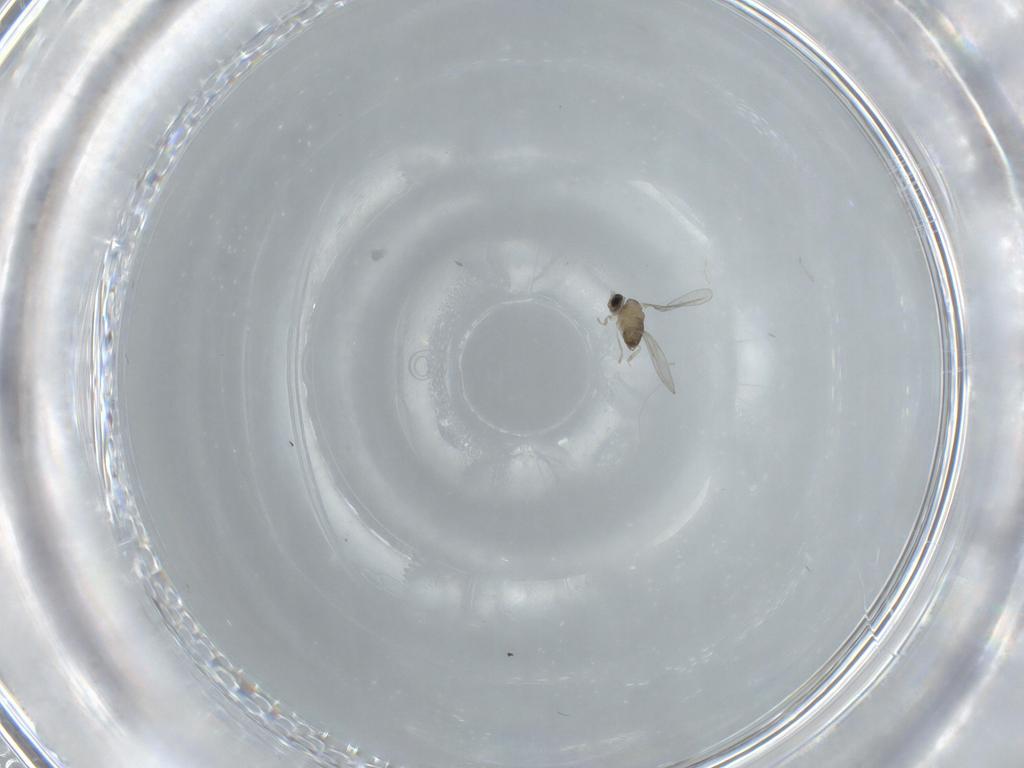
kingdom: Animalia
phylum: Arthropoda
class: Insecta
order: Diptera
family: Cecidomyiidae
